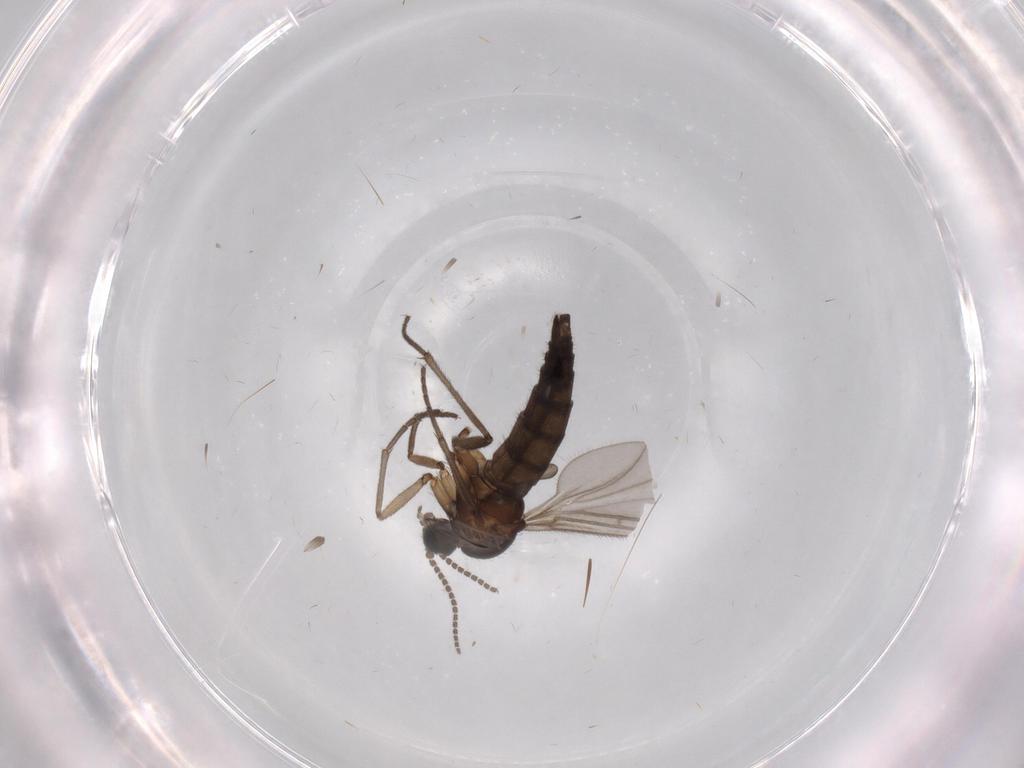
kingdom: Animalia
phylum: Arthropoda
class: Insecta
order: Diptera
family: Sciaridae
